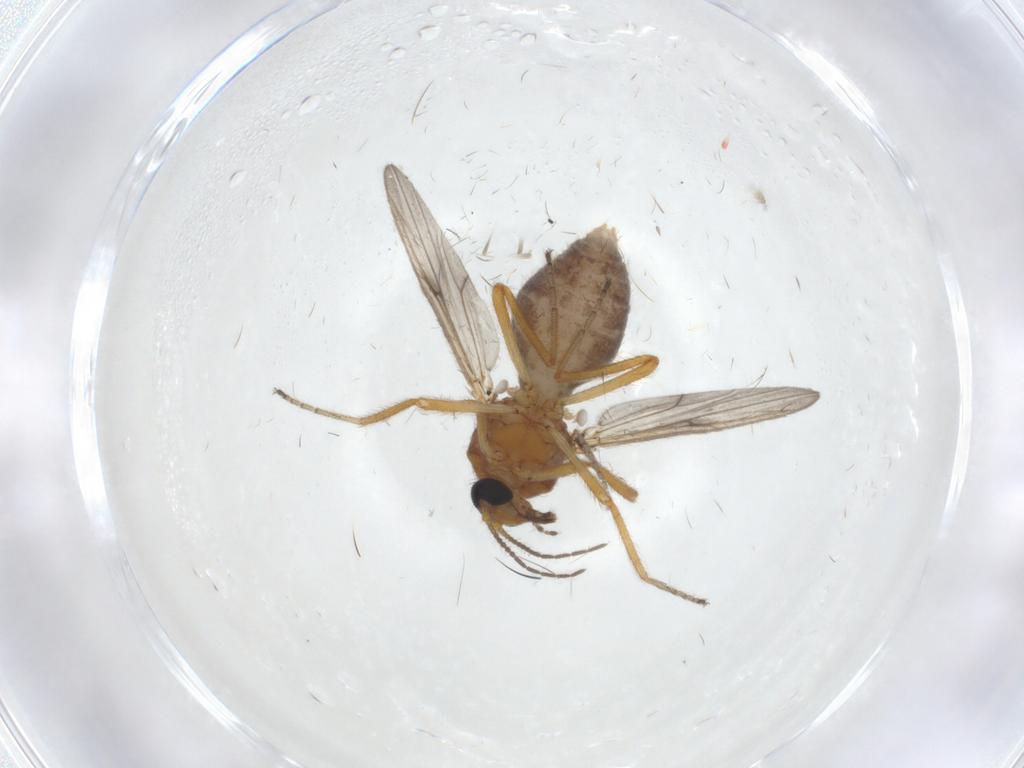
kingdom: Animalia
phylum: Arthropoda
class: Insecta
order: Diptera
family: Ceratopogonidae
